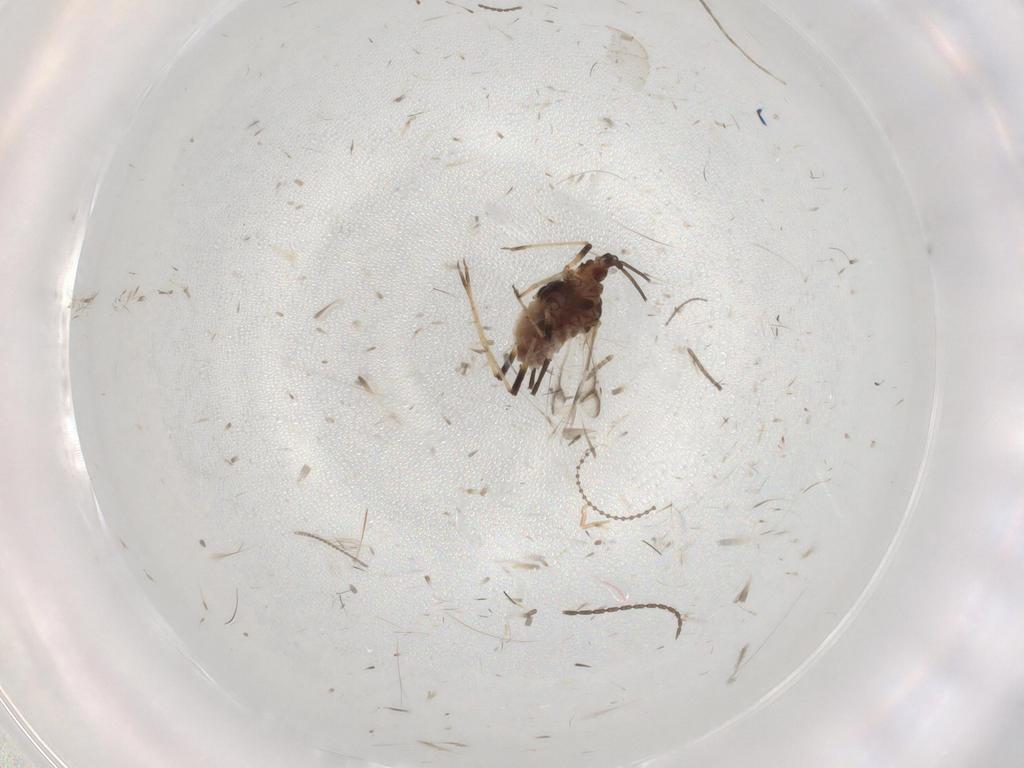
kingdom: Animalia
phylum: Arthropoda
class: Insecta
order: Hemiptera
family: Aphididae
